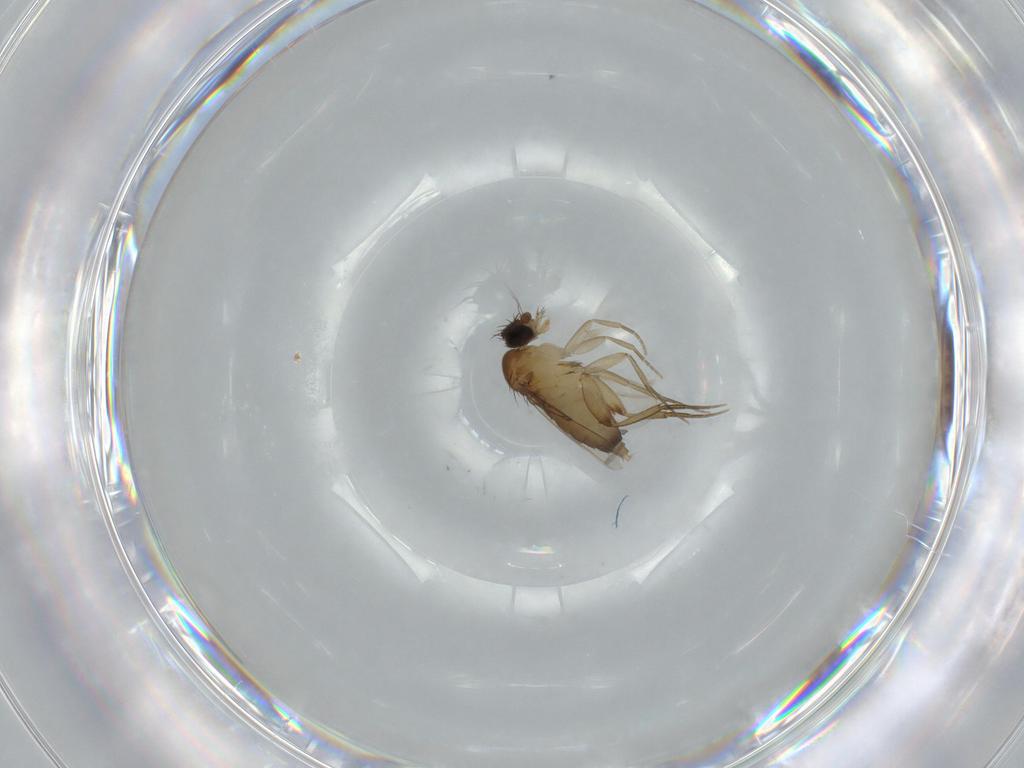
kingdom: Animalia
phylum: Arthropoda
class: Insecta
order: Diptera
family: Phoridae
